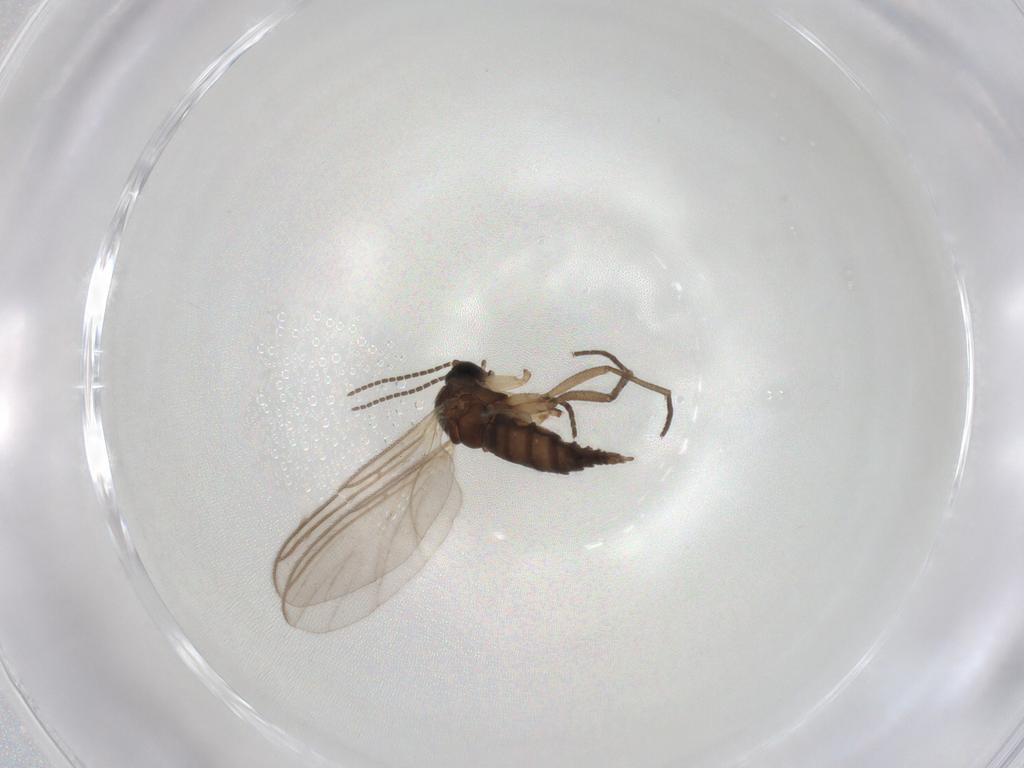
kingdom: Animalia
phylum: Arthropoda
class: Insecta
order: Diptera
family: Sciaridae
